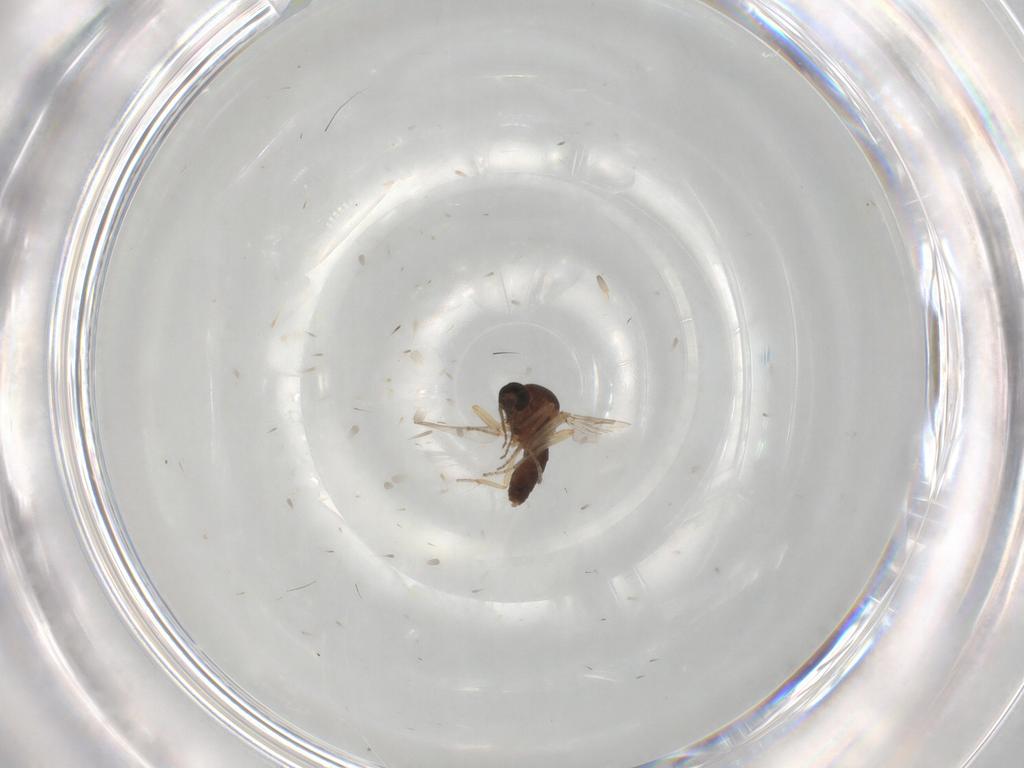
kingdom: Animalia
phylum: Arthropoda
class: Insecta
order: Diptera
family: Ceratopogonidae
